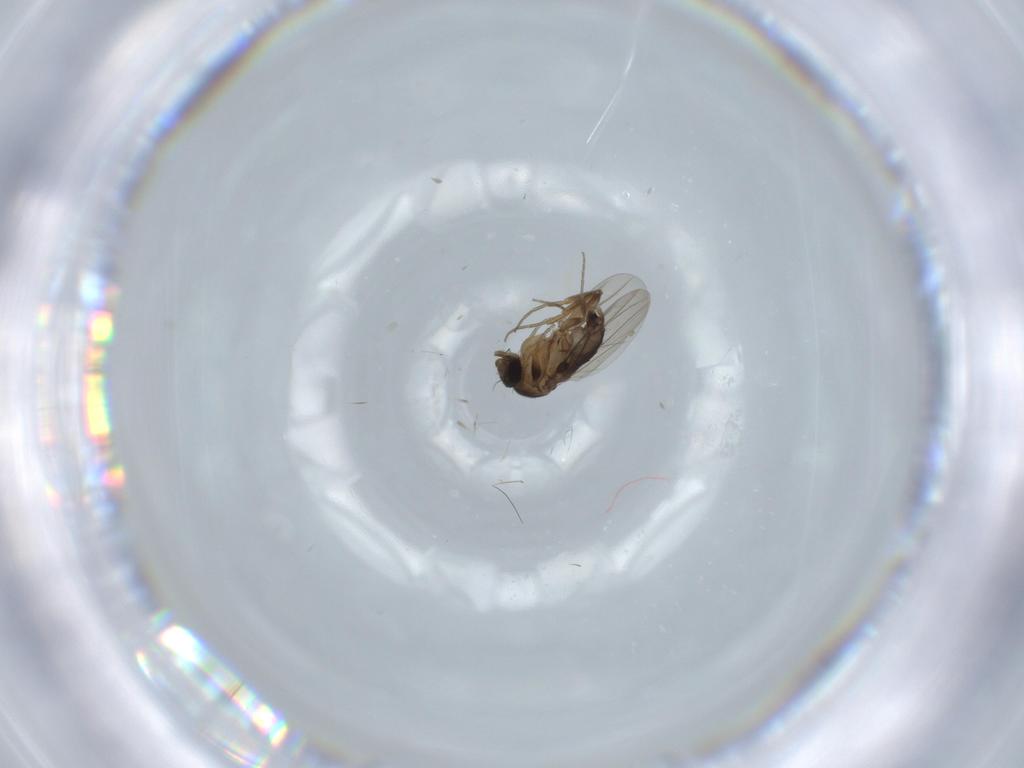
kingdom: Animalia
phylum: Arthropoda
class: Insecta
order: Diptera
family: Phoridae
